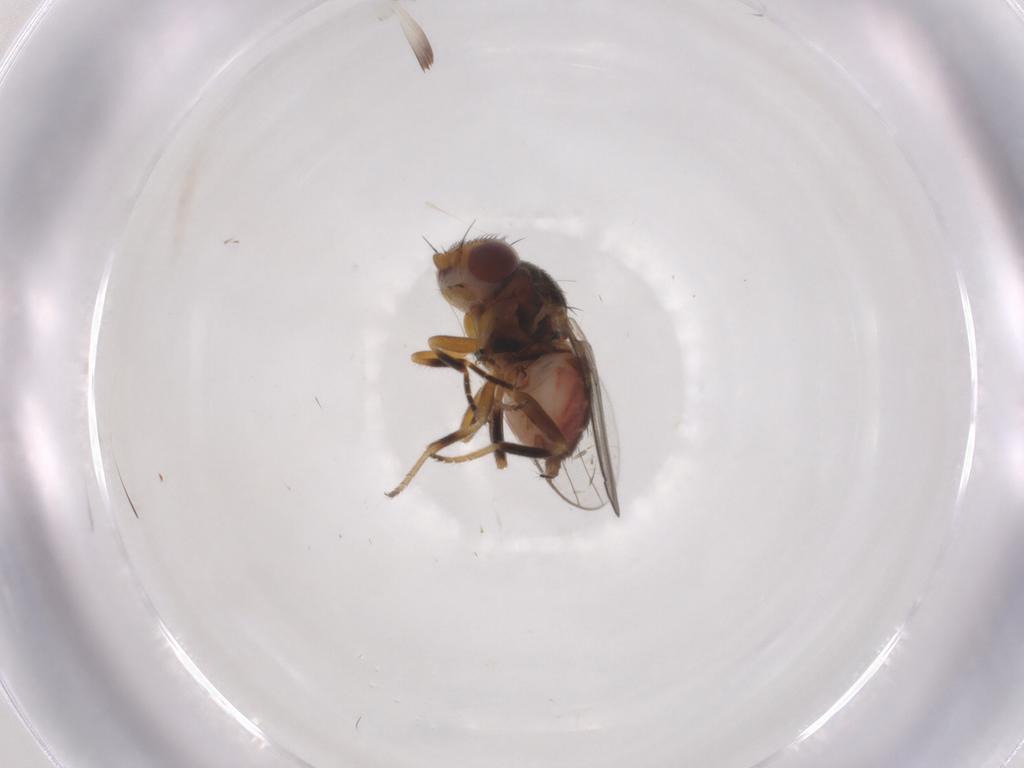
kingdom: Animalia
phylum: Arthropoda
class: Insecta
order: Diptera
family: Chloropidae
